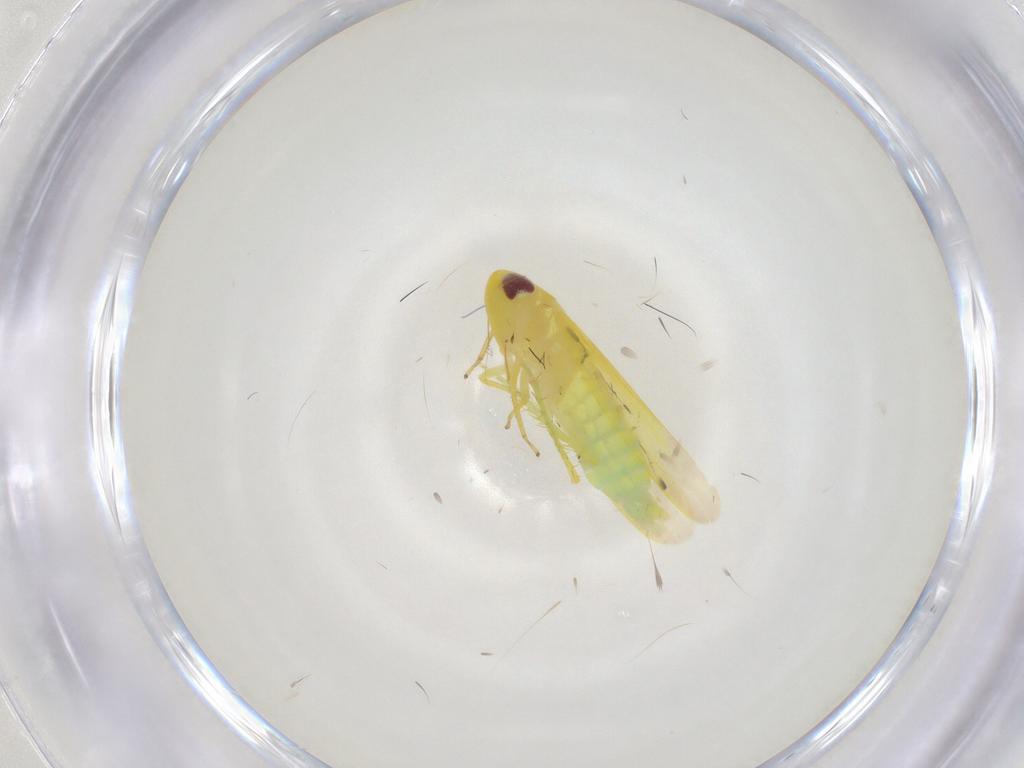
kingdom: Animalia
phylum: Arthropoda
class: Insecta
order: Hemiptera
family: Cicadellidae
